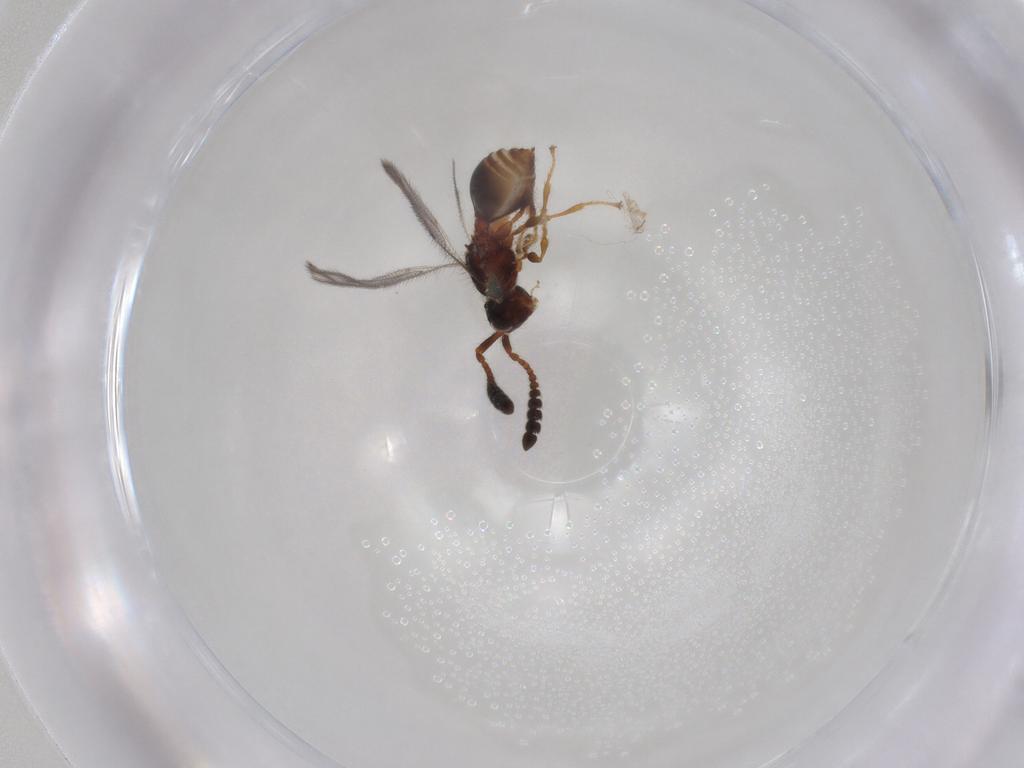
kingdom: Animalia
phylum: Arthropoda
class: Insecta
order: Hymenoptera
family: Diapriidae
